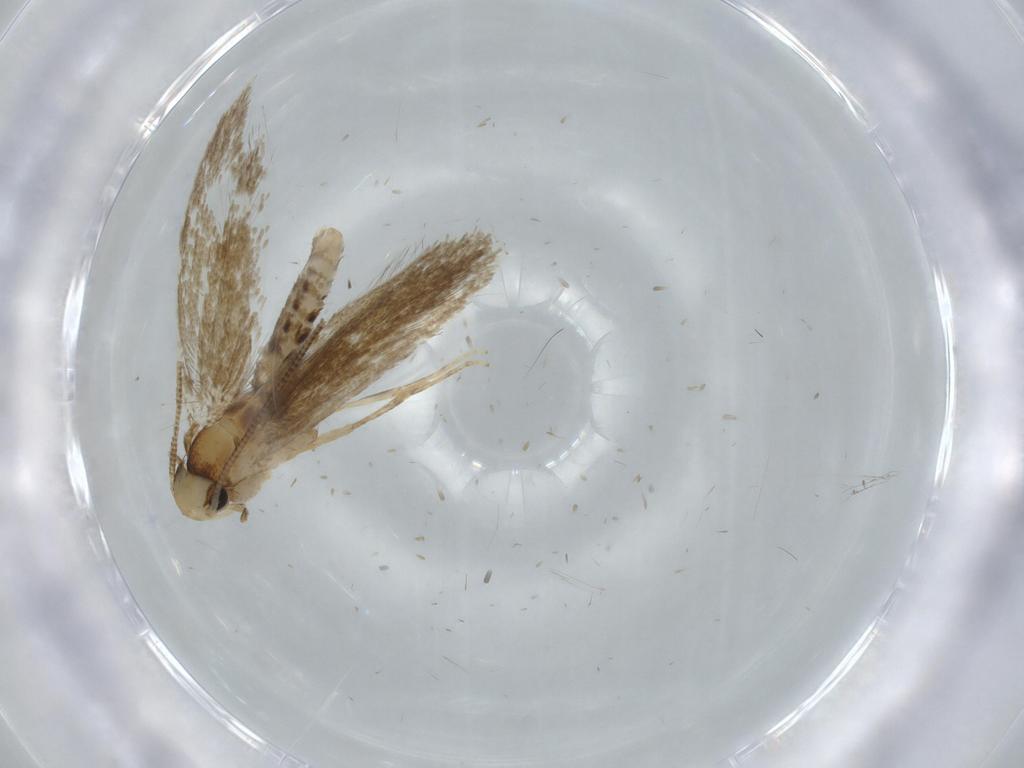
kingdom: Animalia
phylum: Arthropoda
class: Insecta
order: Lepidoptera
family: Tineidae
